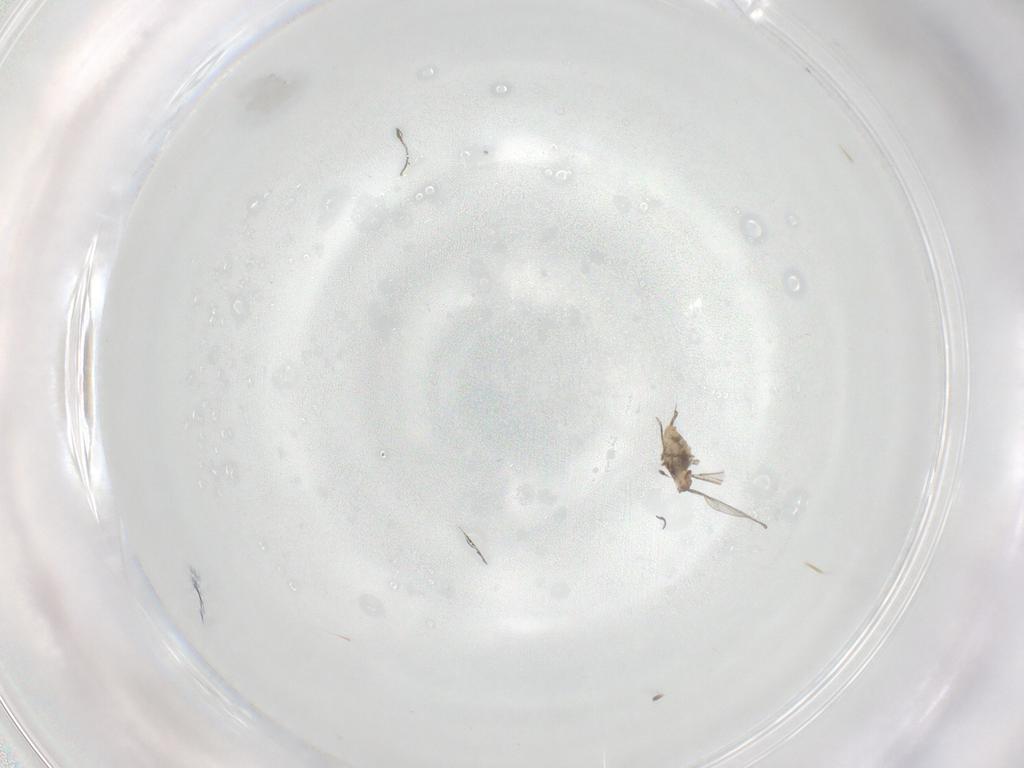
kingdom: Animalia
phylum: Arthropoda
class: Insecta
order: Diptera
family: Cecidomyiidae
